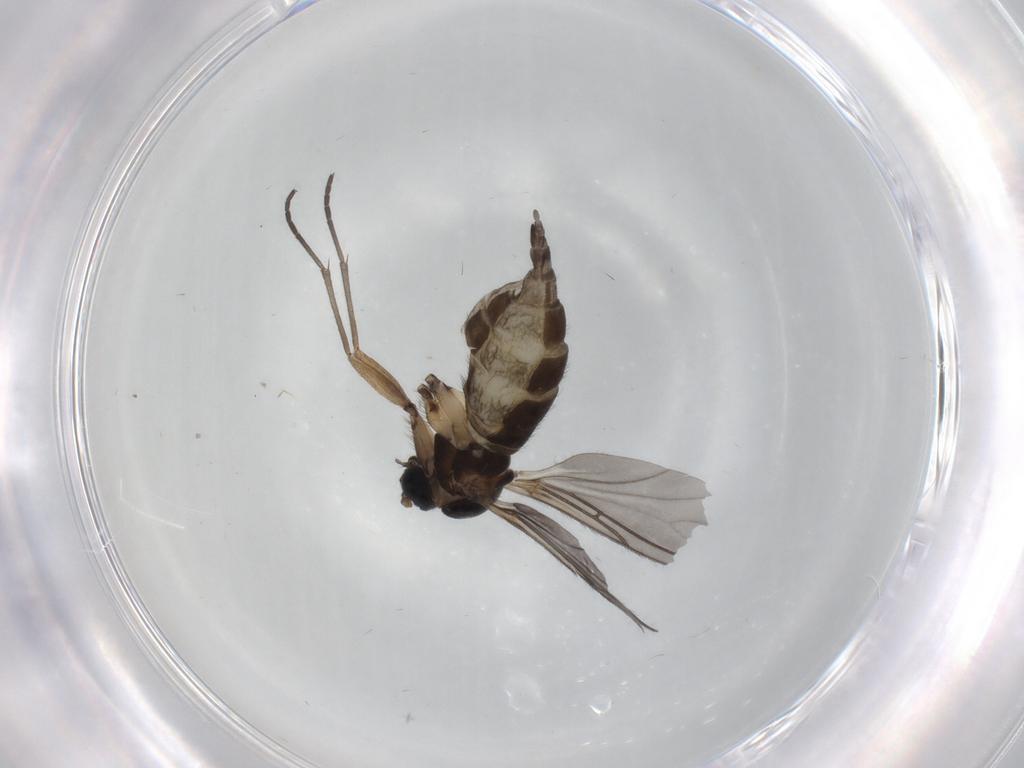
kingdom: Animalia
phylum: Arthropoda
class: Insecta
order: Diptera
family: Sciaridae
